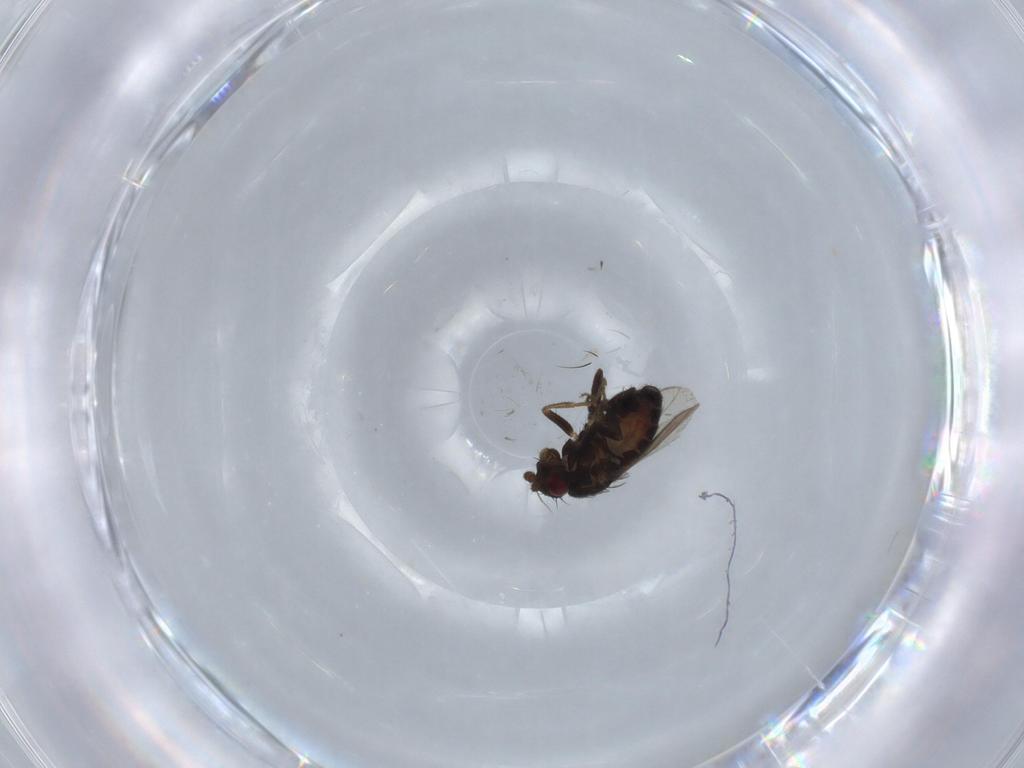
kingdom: Animalia
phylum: Arthropoda
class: Insecta
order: Diptera
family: Sphaeroceridae
